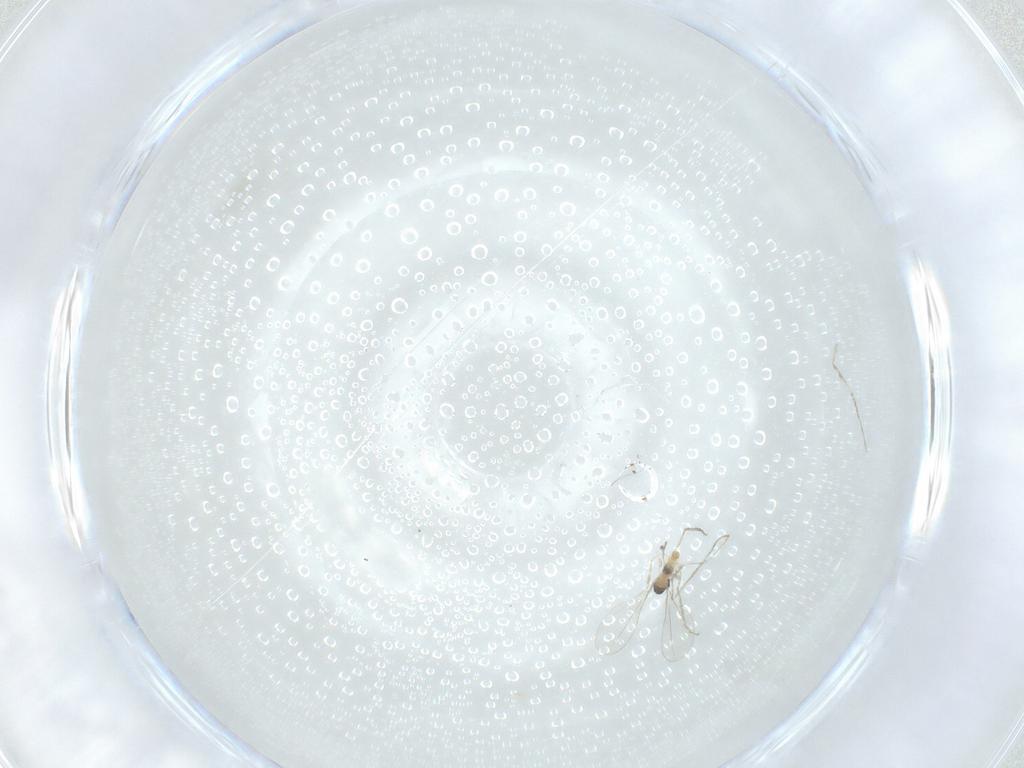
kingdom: Animalia
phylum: Arthropoda
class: Insecta
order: Diptera
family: Cecidomyiidae
